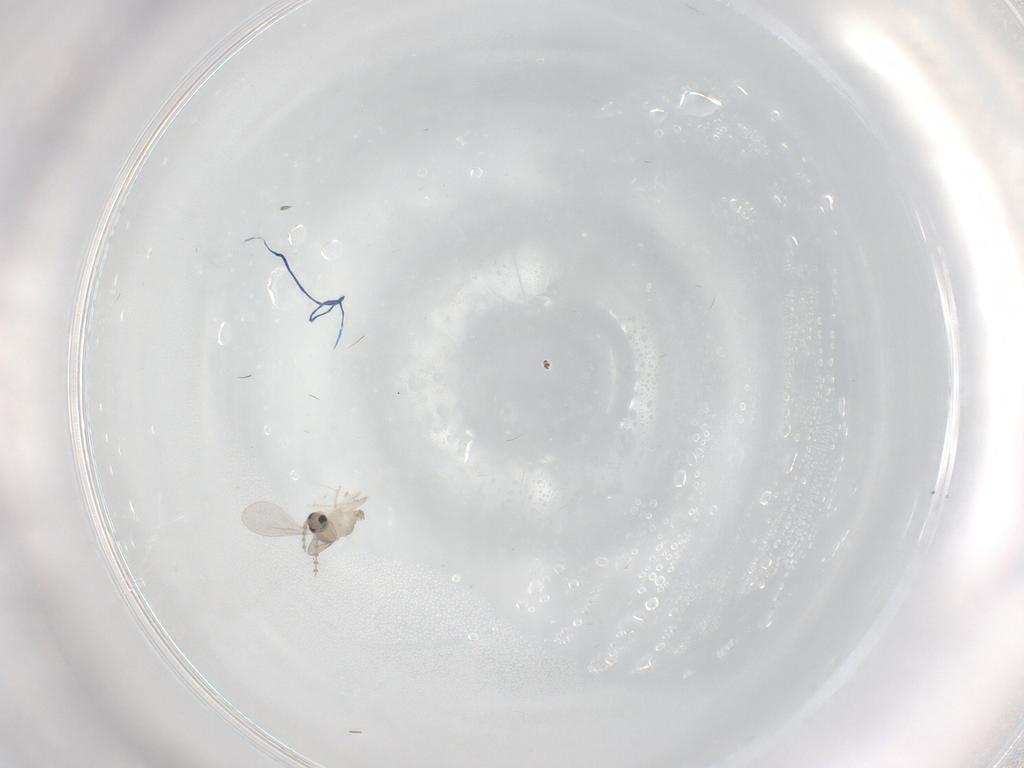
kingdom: Animalia
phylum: Arthropoda
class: Insecta
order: Diptera
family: Cecidomyiidae
